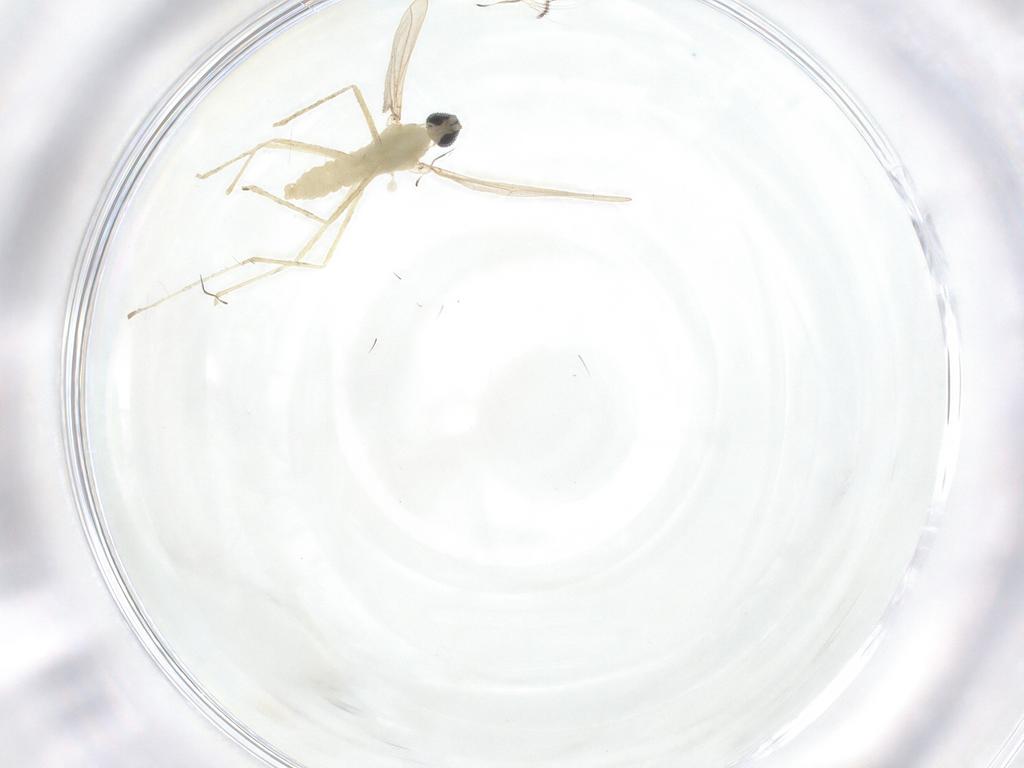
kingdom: Animalia
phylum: Arthropoda
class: Insecta
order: Diptera
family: Cecidomyiidae
